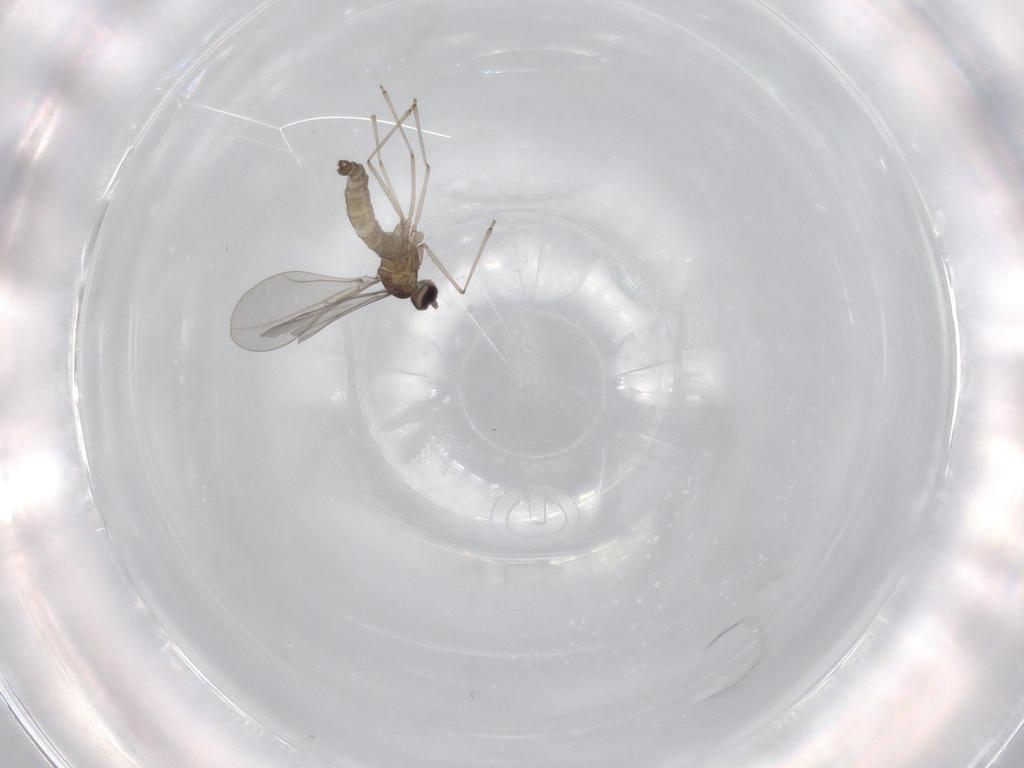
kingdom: Animalia
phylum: Arthropoda
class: Insecta
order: Diptera
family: Cecidomyiidae
